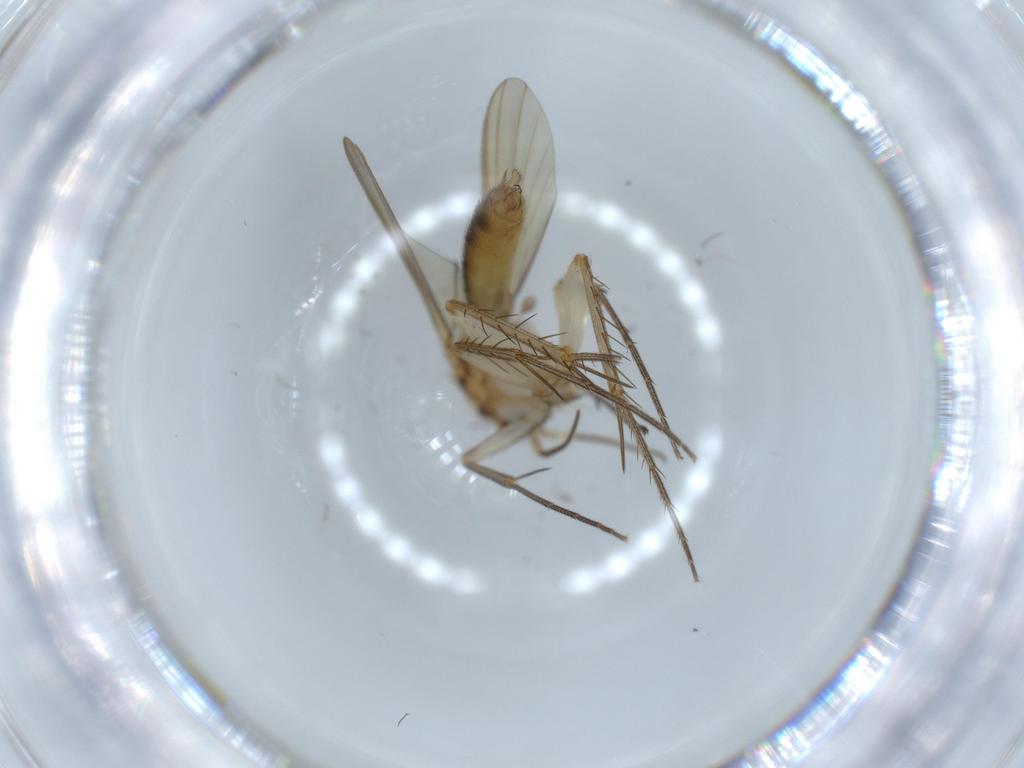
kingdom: Animalia
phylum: Arthropoda
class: Insecta
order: Diptera
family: Mycetophilidae
